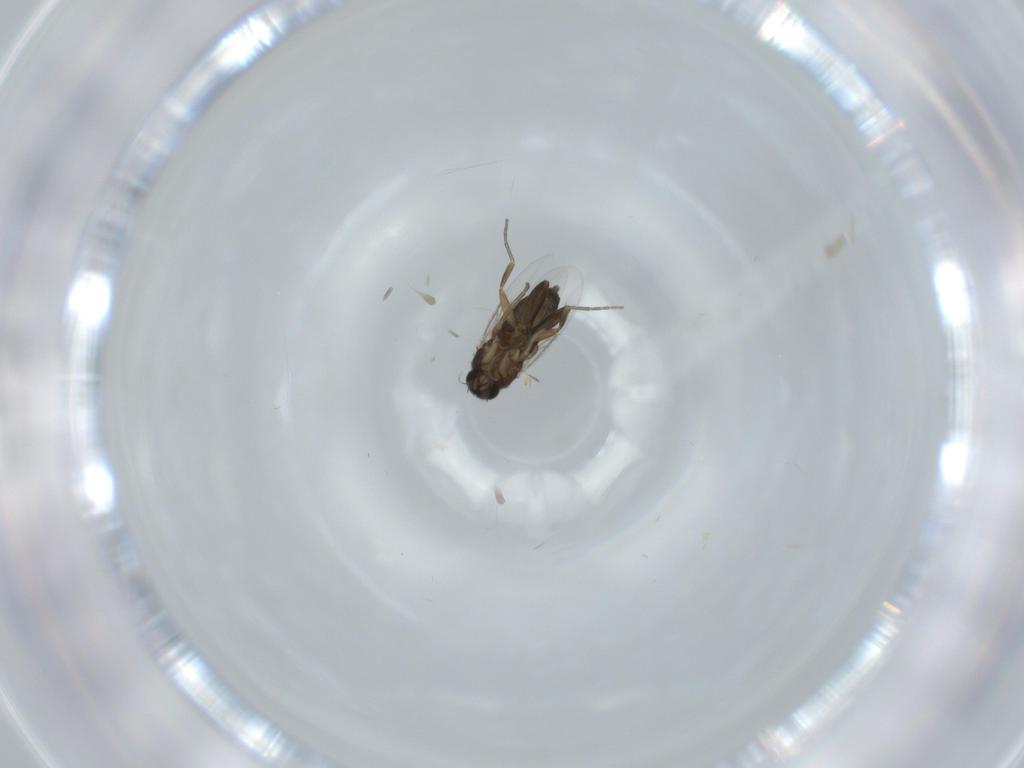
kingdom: Animalia
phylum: Arthropoda
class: Insecta
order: Diptera
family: Phoridae
